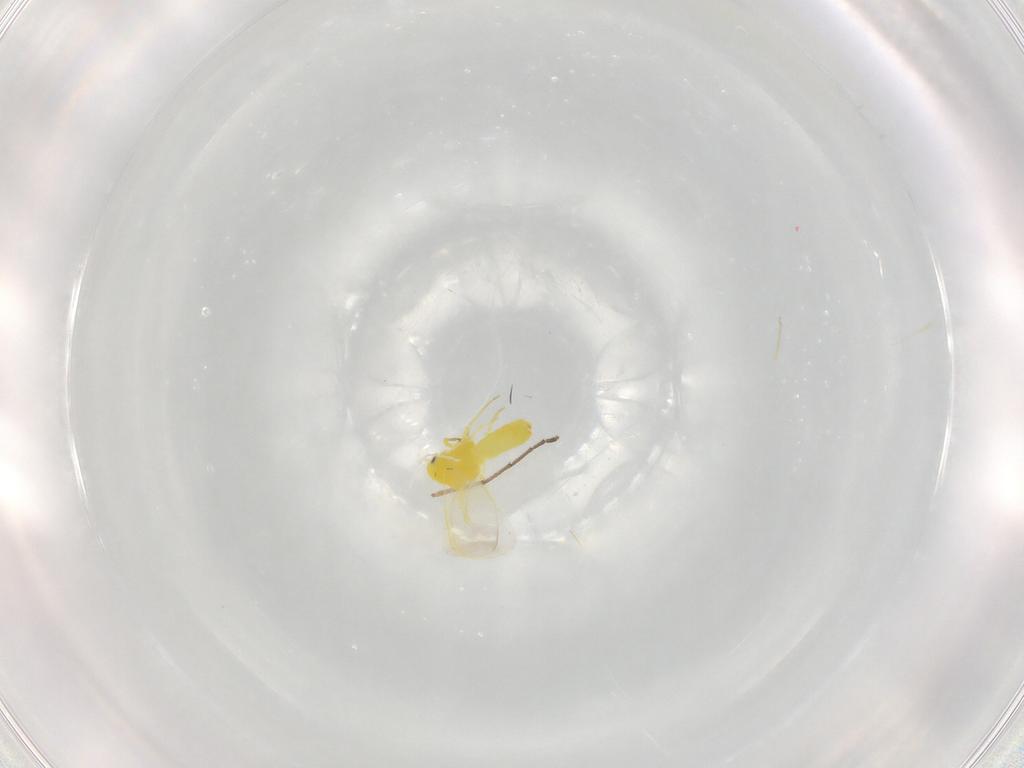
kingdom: Animalia
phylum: Arthropoda
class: Insecta
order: Hemiptera
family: Aleyrodidae
